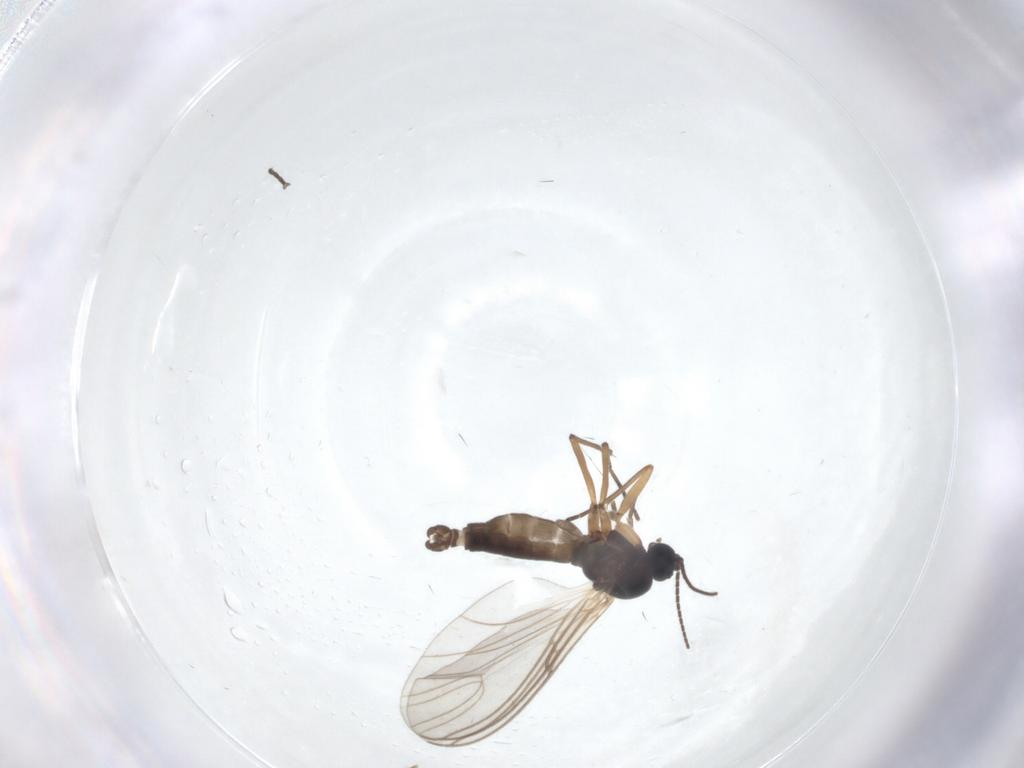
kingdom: Animalia
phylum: Arthropoda
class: Insecta
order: Diptera
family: Sciaridae
